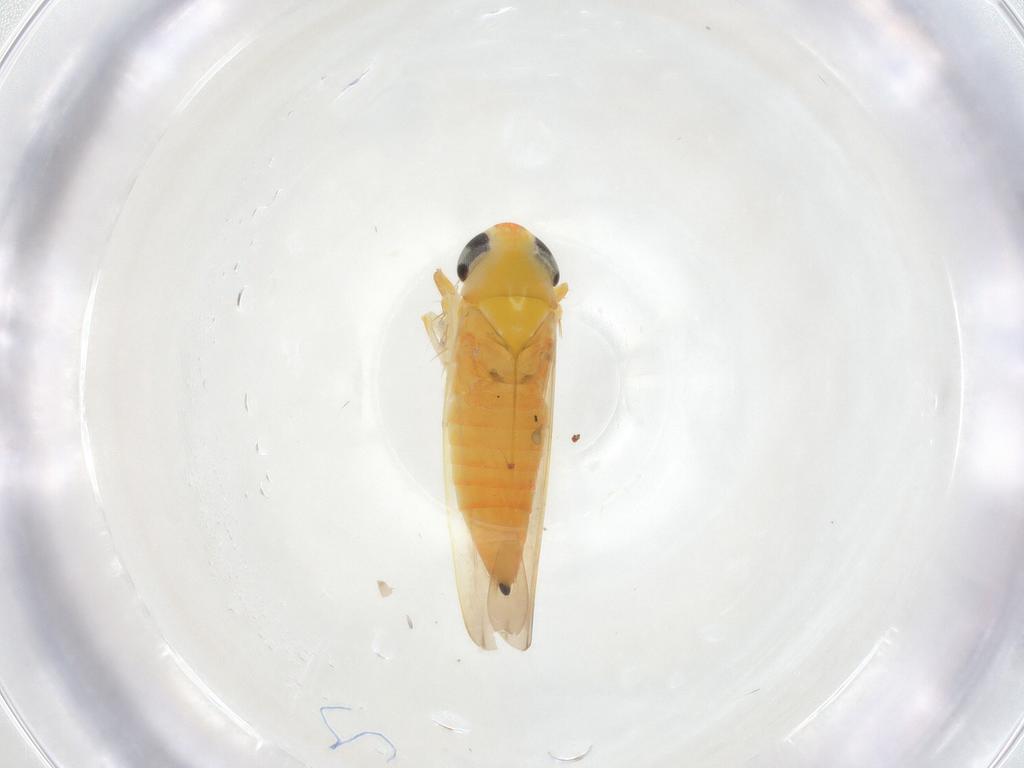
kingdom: Animalia
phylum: Arthropoda
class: Insecta
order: Hemiptera
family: Cicadellidae
